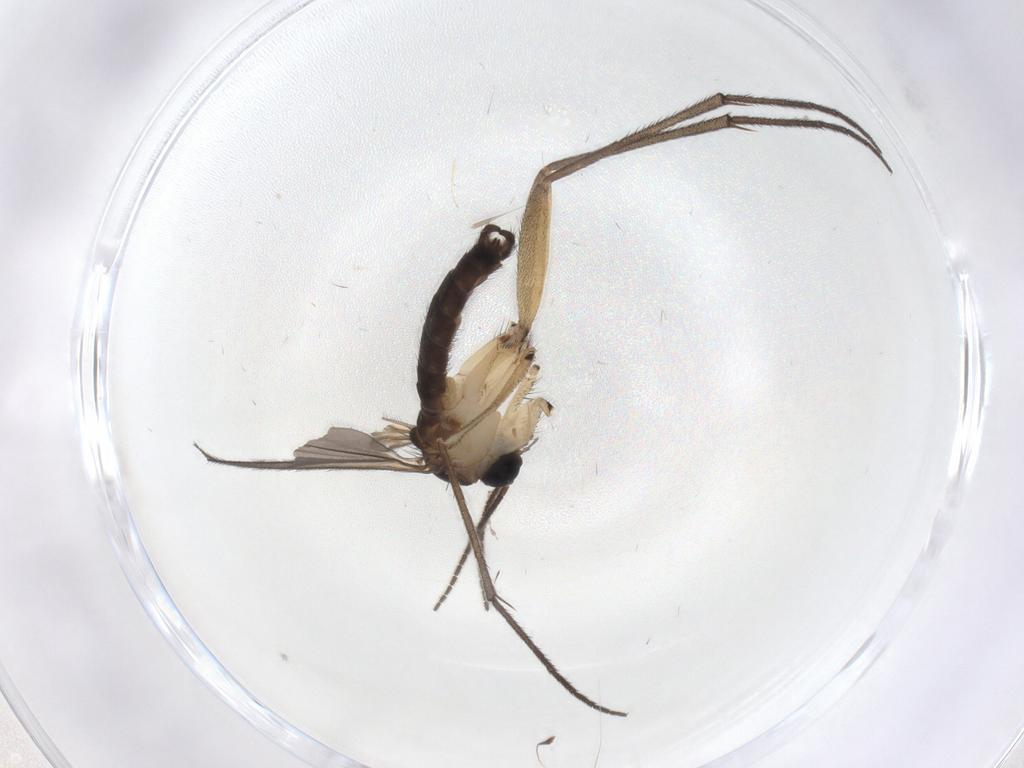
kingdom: Animalia
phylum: Arthropoda
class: Insecta
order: Diptera
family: Sciaridae
